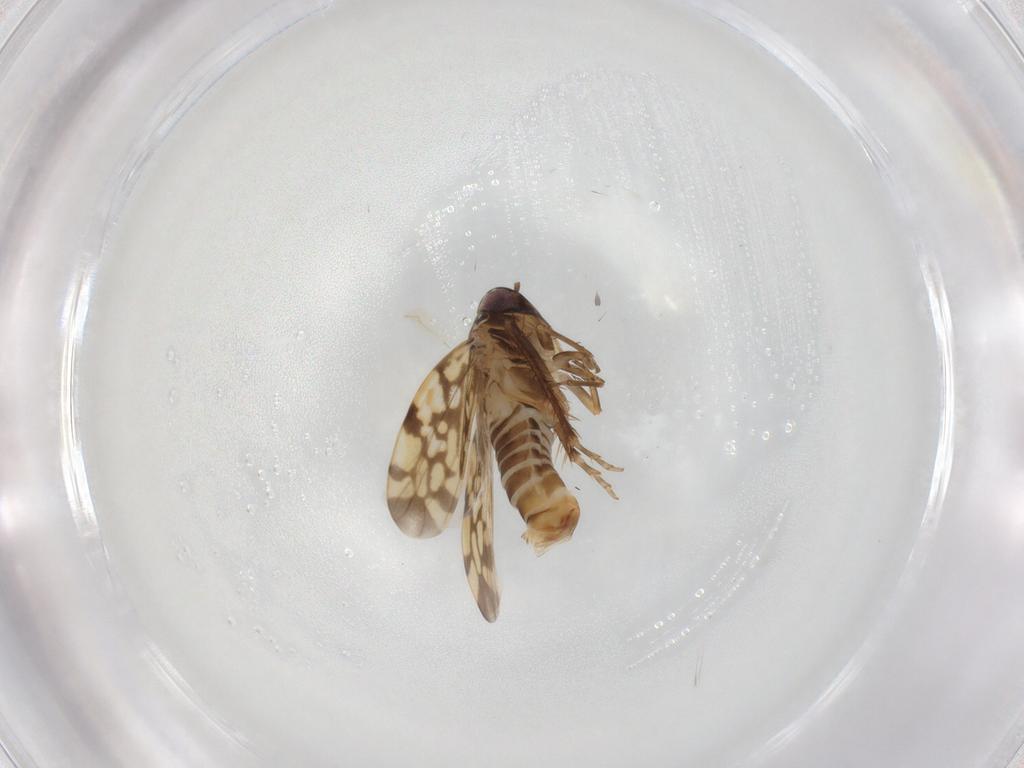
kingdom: Animalia
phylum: Arthropoda
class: Insecta
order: Hemiptera
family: Cicadellidae
